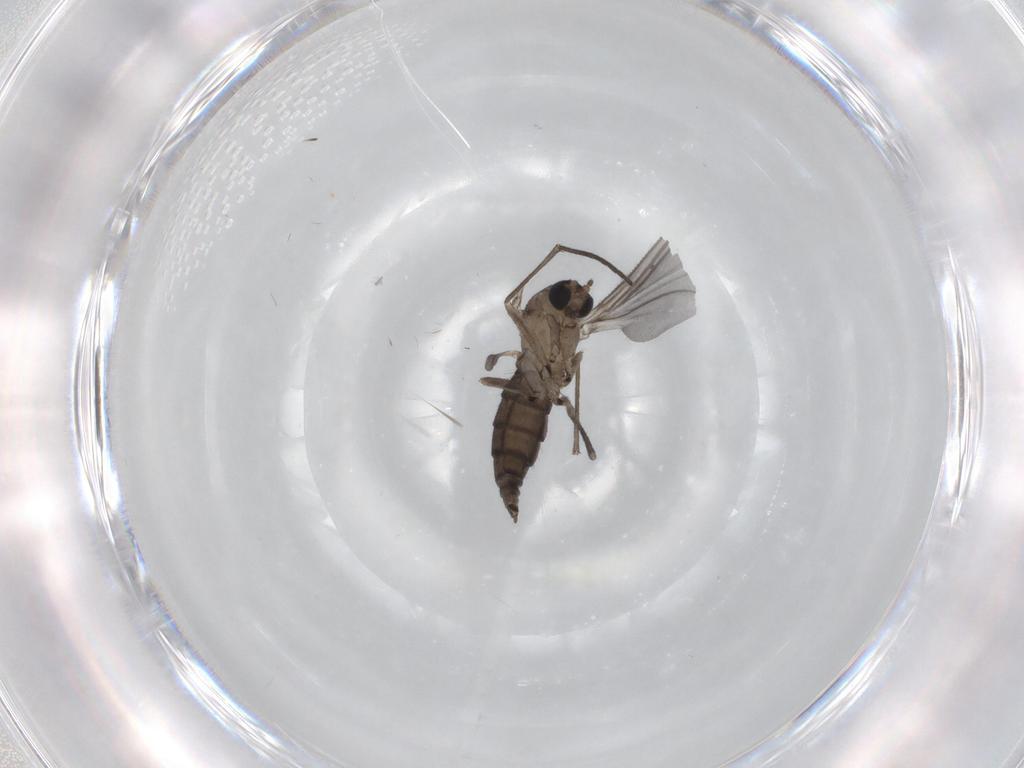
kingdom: Animalia
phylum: Arthropoda
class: Insecta
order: Diptera
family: Sciaridae
